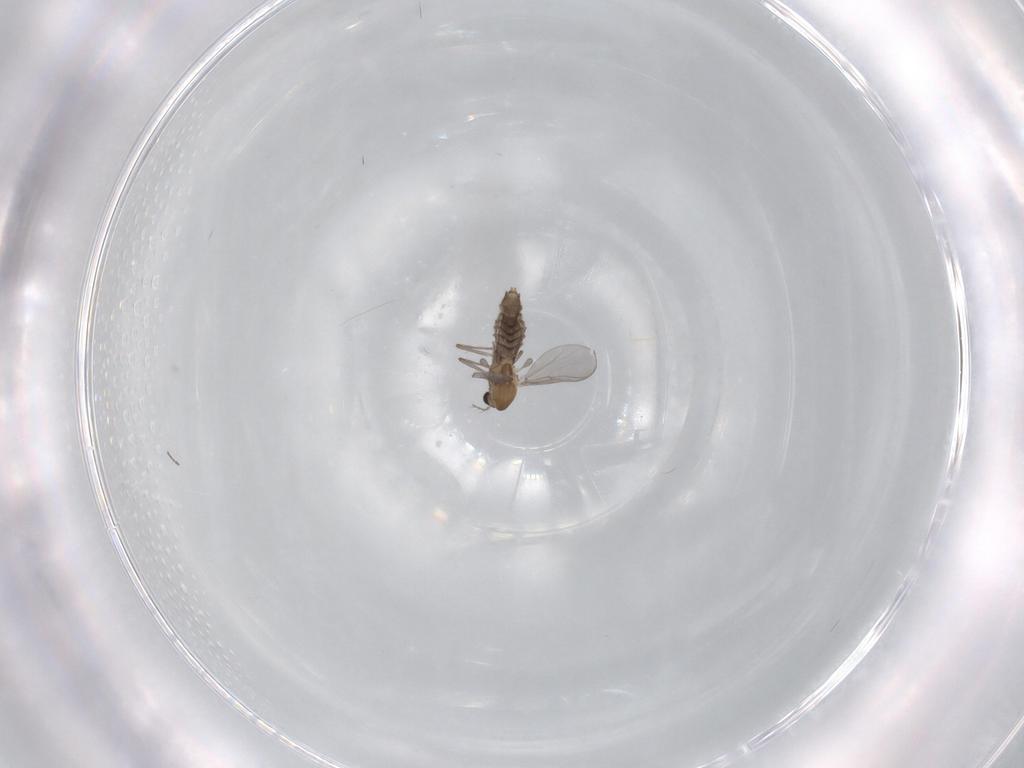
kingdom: Animalia
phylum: Arthropoda
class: Insecta
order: Diptera
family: Chironomidae
